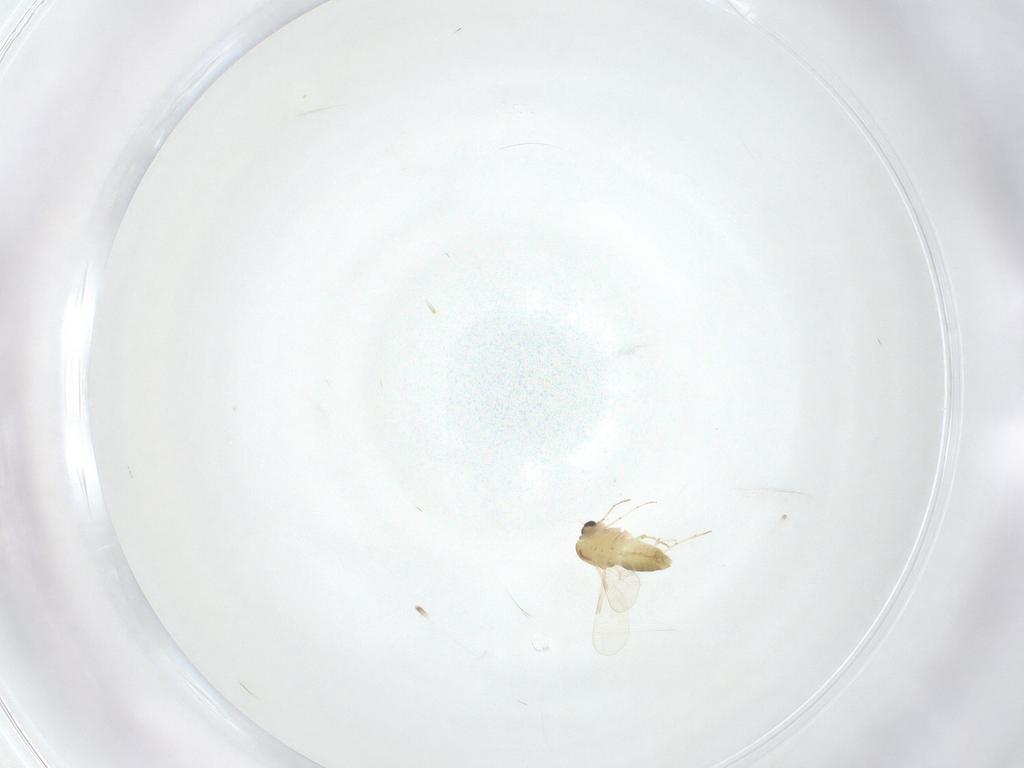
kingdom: Animalia
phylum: Arthropoda
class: Insecta
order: Diptera
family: Chironomidae
